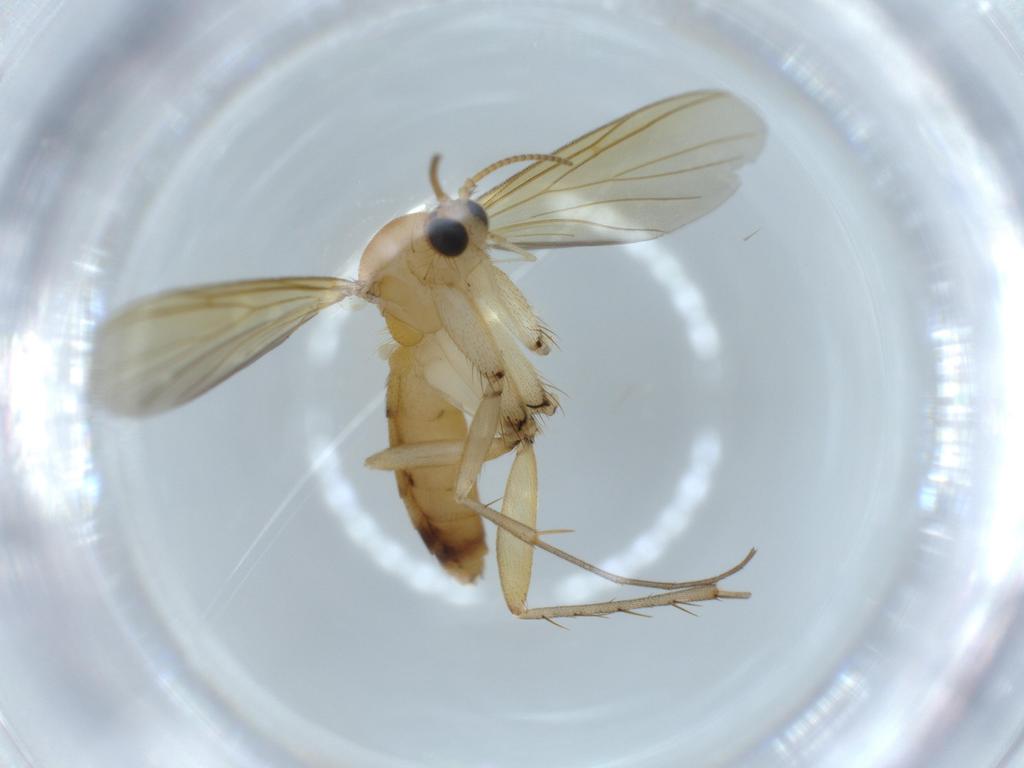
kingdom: Animalia
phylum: Arthropoda
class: Insecta
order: Diptera
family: Mycetophilidae
